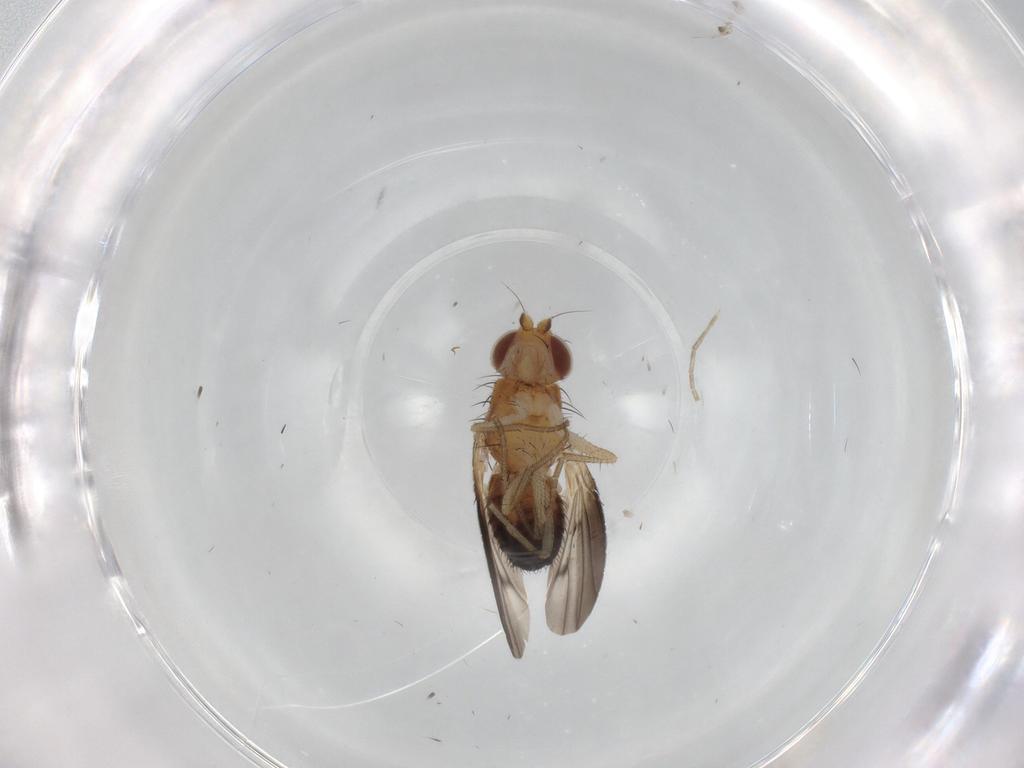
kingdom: Animalia
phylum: Arthropoda
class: Insecta
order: Diptera
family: Heleomyzidae
